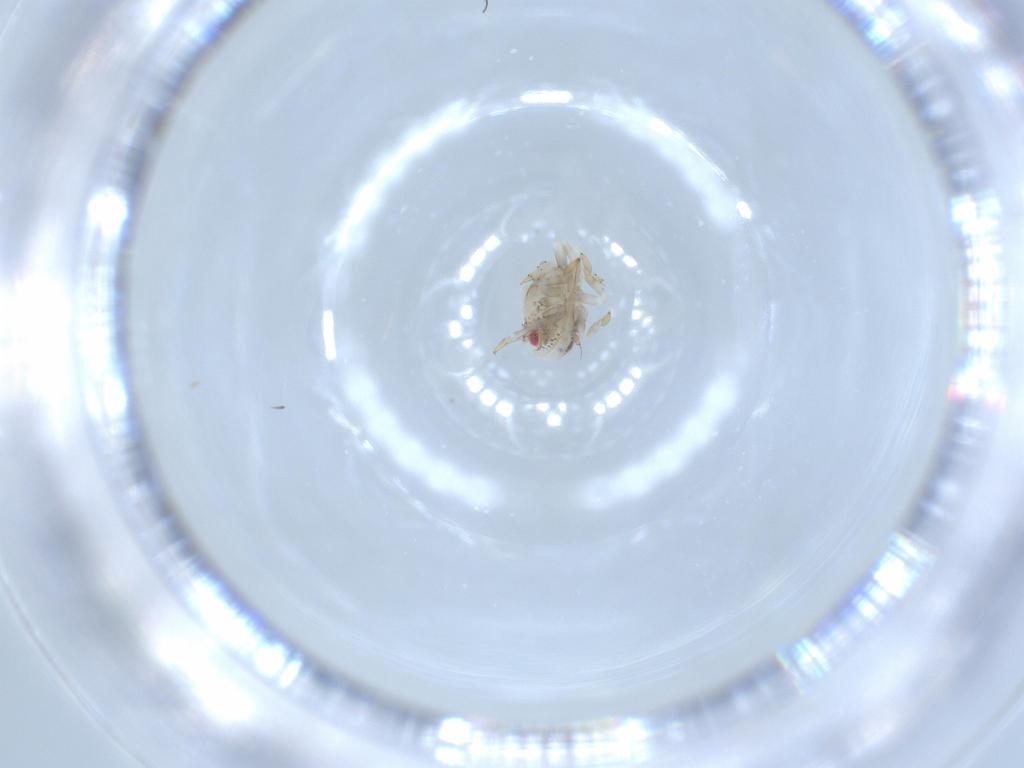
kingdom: Animalia
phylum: Arthropoda
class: Insecta
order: Hemiptera
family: Acanaloniidae
